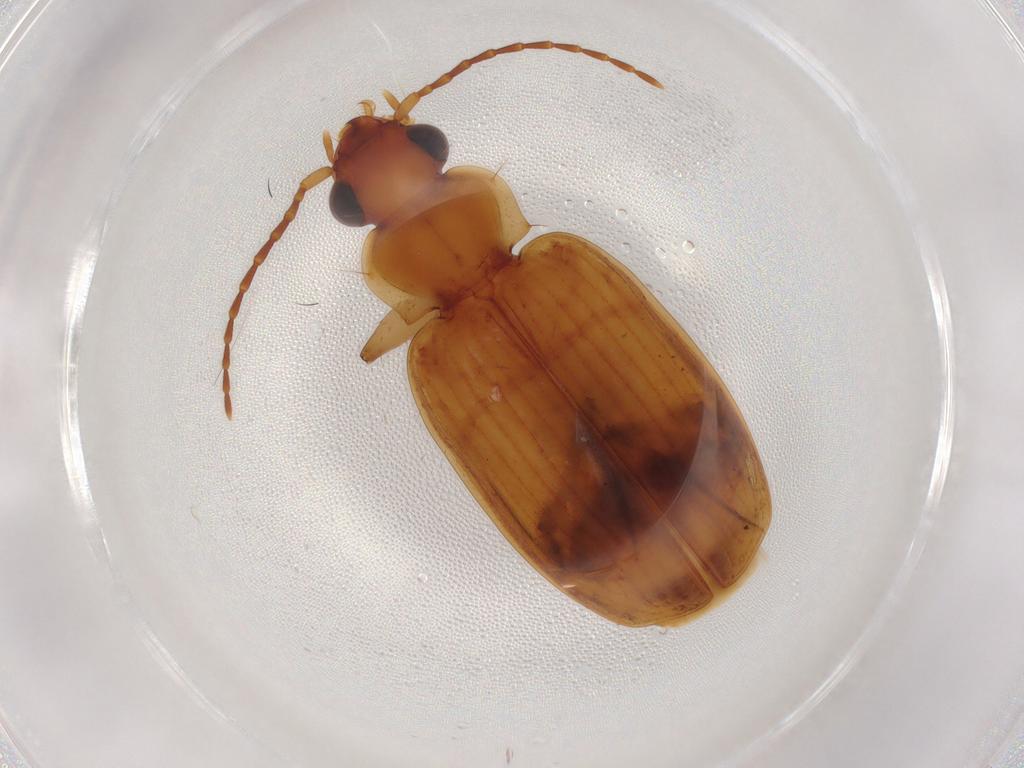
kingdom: Animalia
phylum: Arthropoda
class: Insecta
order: Coleoptera
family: Carabidae
